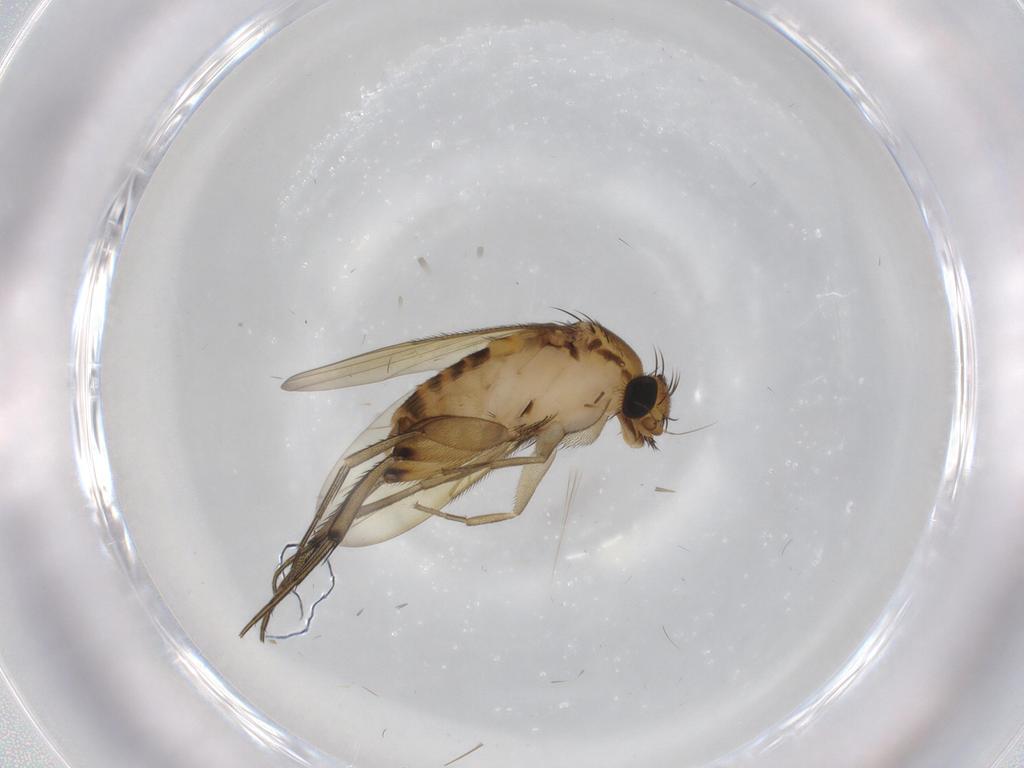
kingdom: Animalia
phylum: Arthropoda
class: Insecta
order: Diptera
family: Phoridae
